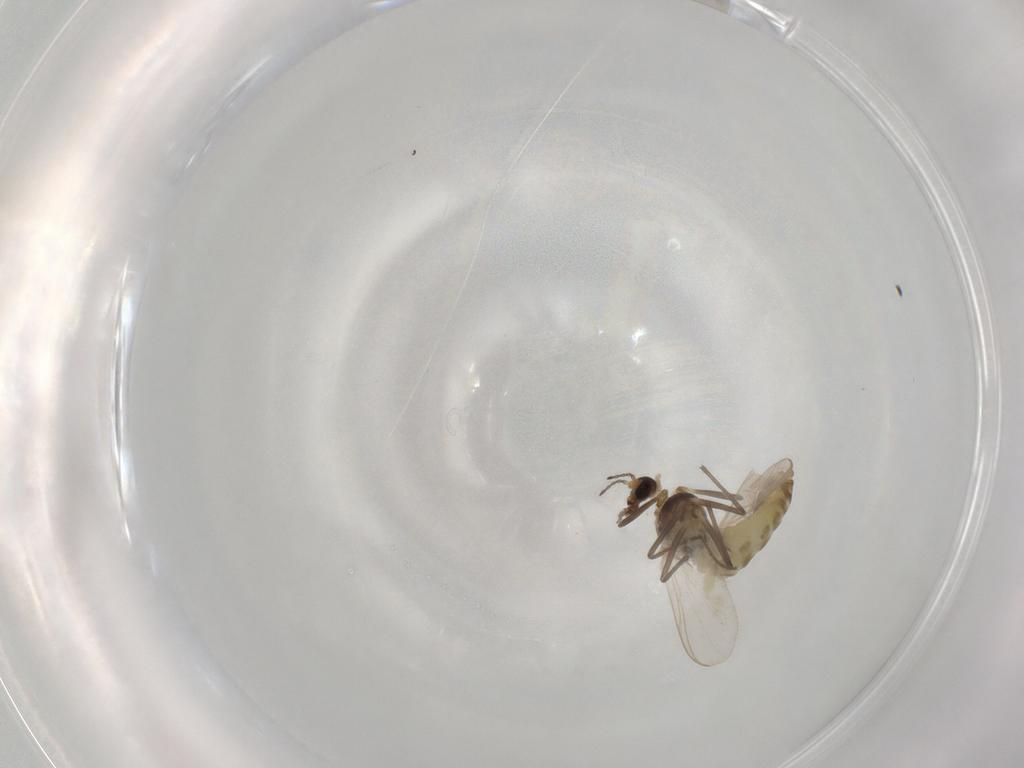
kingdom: Animalia
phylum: Arthropoda
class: Insecta
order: Diptera
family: Chironomidae
